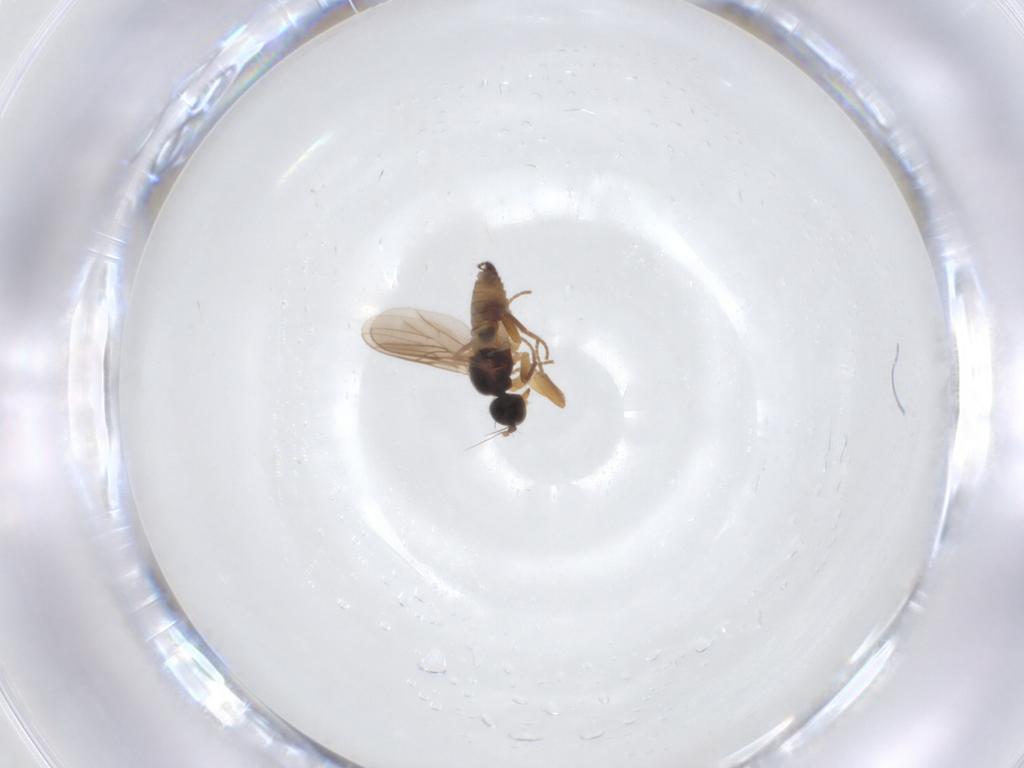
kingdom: Animalia
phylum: Arthropoda
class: Insecta
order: Diptera
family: Hybotidae
